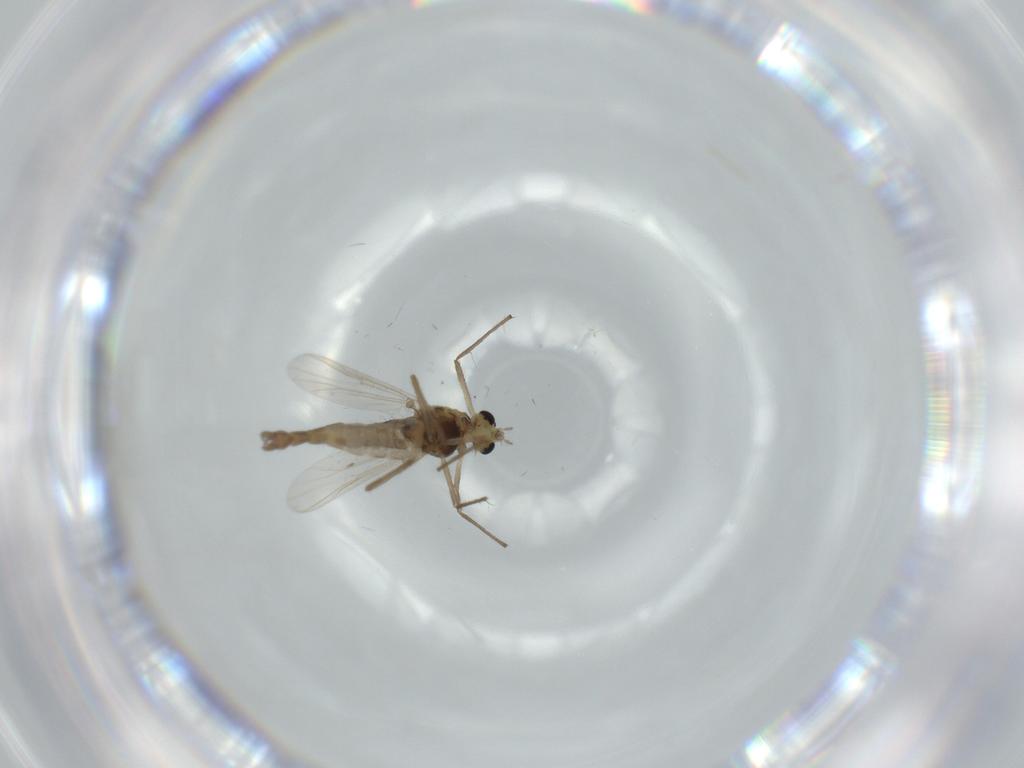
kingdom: Animalia
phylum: Arthropoda
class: Insecta
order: Diptera
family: Chironomidae
